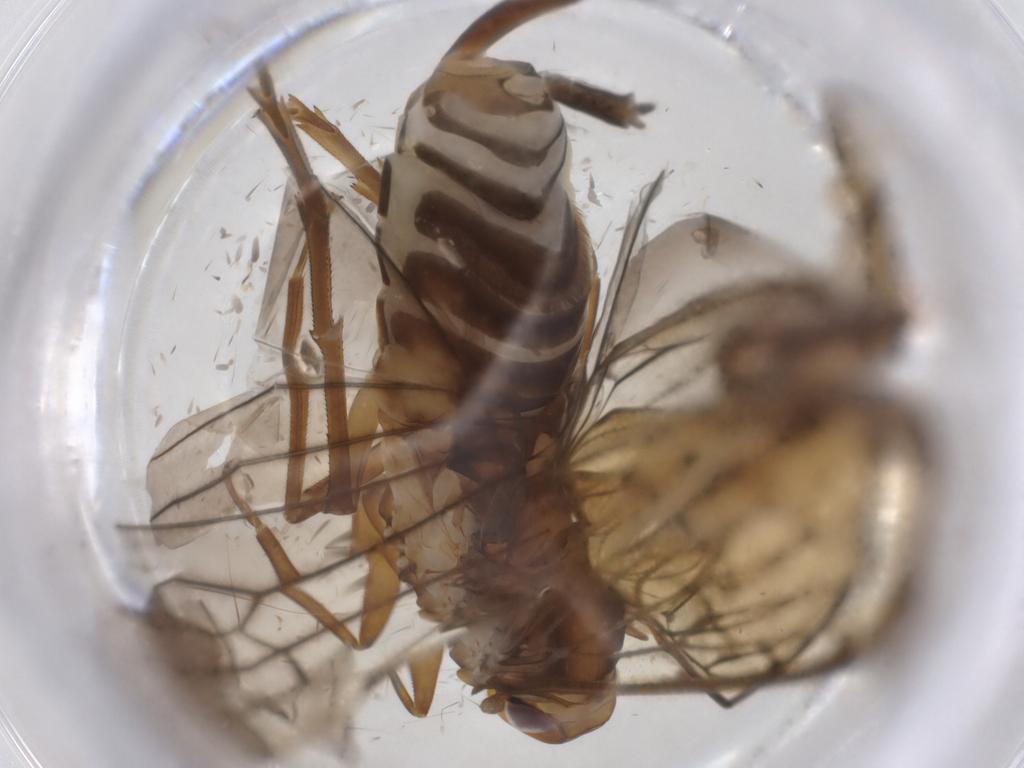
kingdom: Animalia
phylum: Arthropoda
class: Insecta
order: Hemiptera
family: Cixiidae
